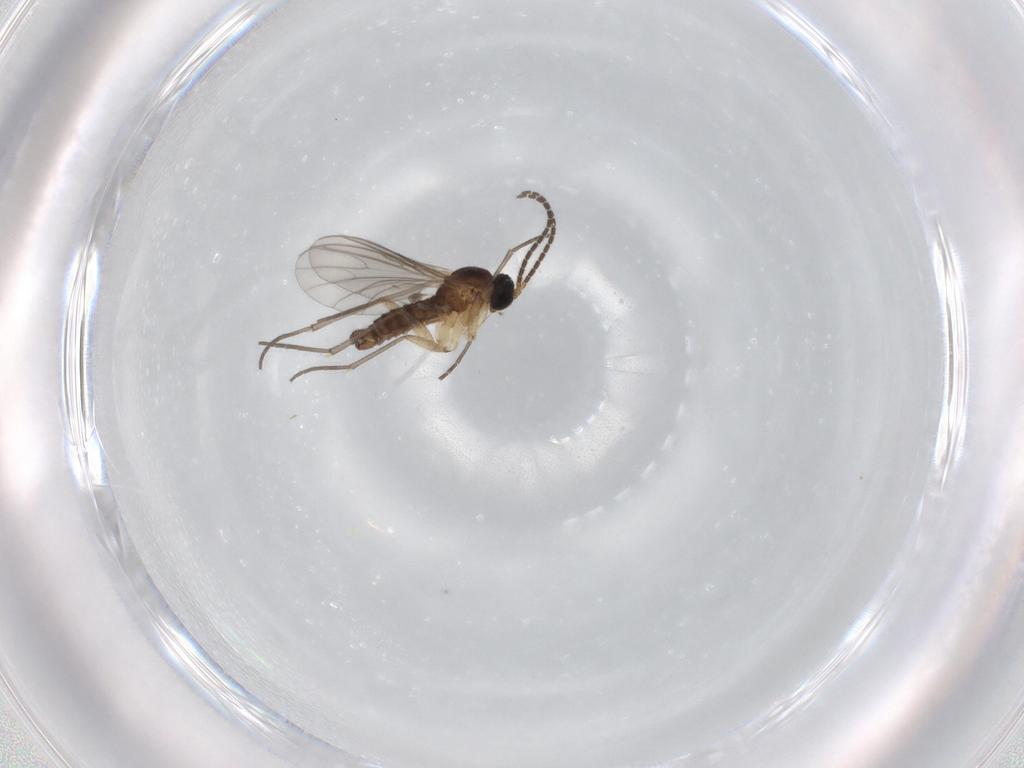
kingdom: Animalia
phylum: Arthropoda
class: Insecta
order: Diptera
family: Sciaridae
